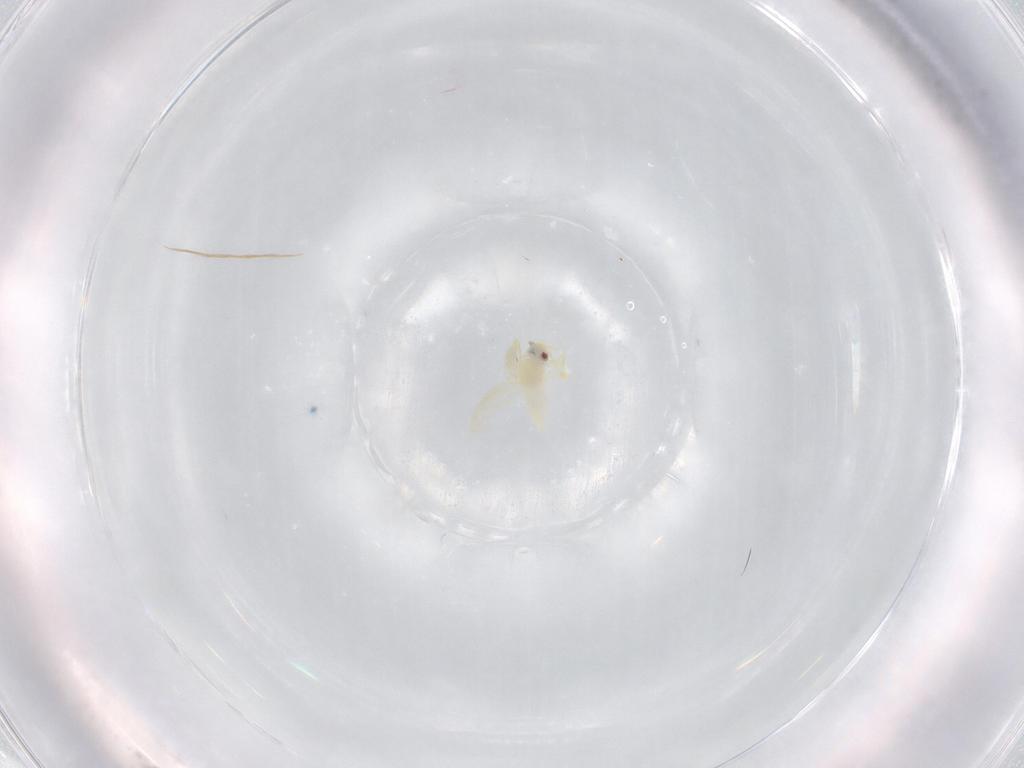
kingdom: Animalia
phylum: Arthropoda
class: Insecta
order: Hemiptera
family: Aleyrodidae
